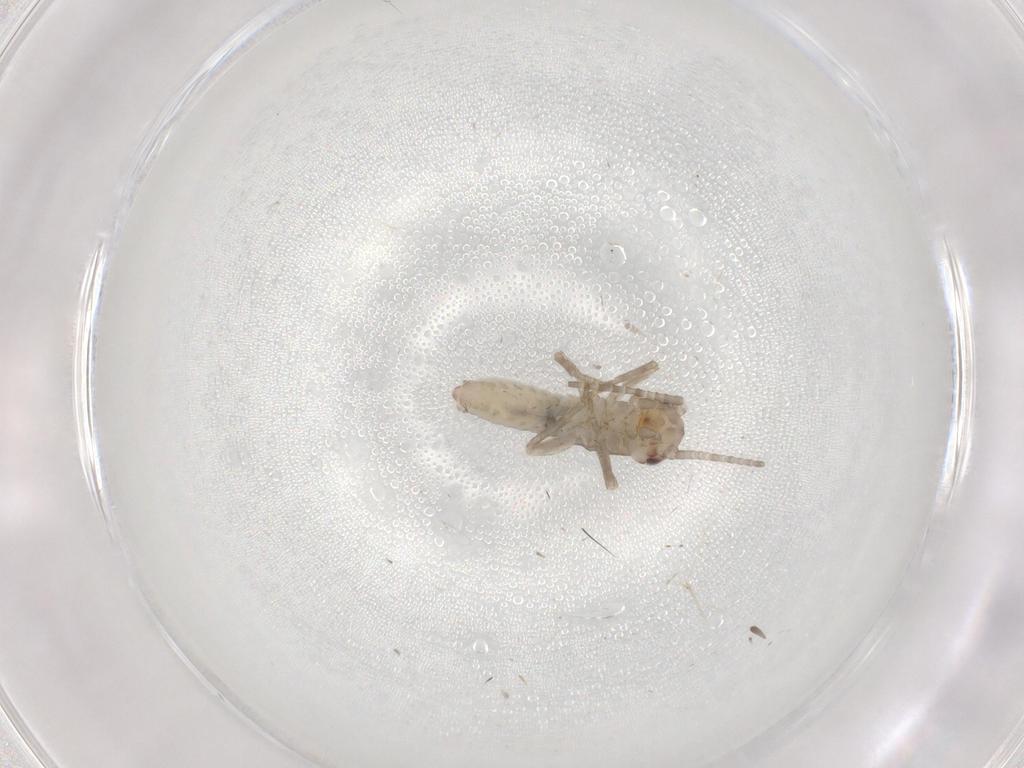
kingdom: Animalia
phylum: Arthropoda
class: Insecta
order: Orthoptera
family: Mogoplistidae
